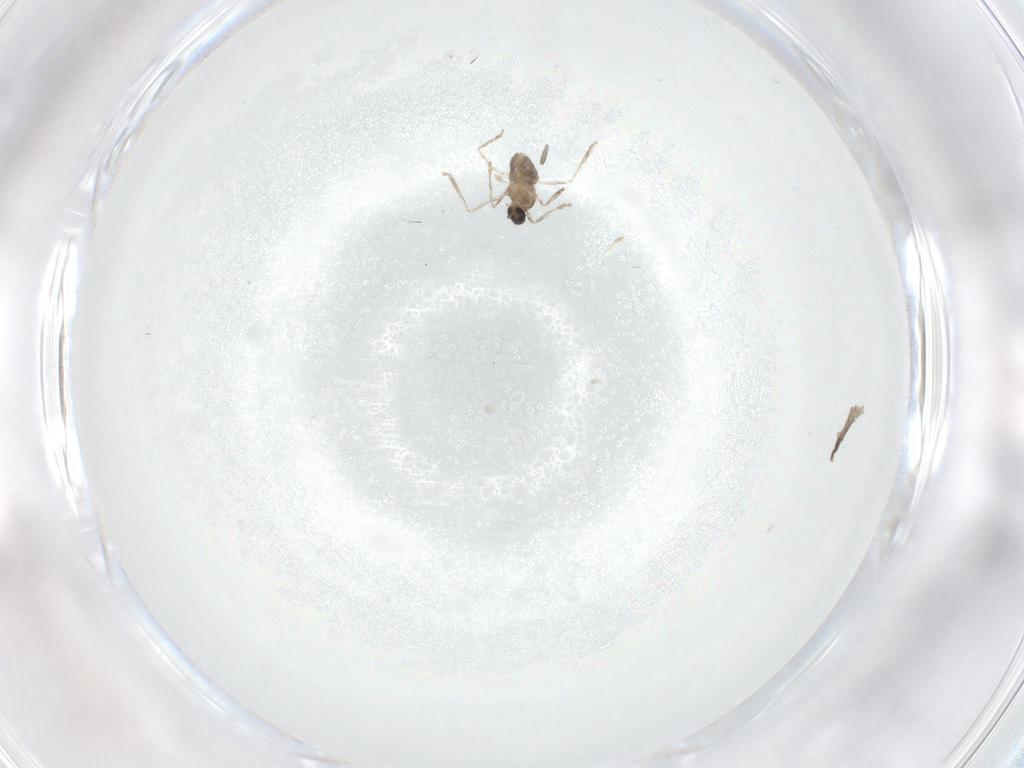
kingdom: Animalia
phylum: Arthropoda
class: Insecta
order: Diptera
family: Cecidomyiidae
